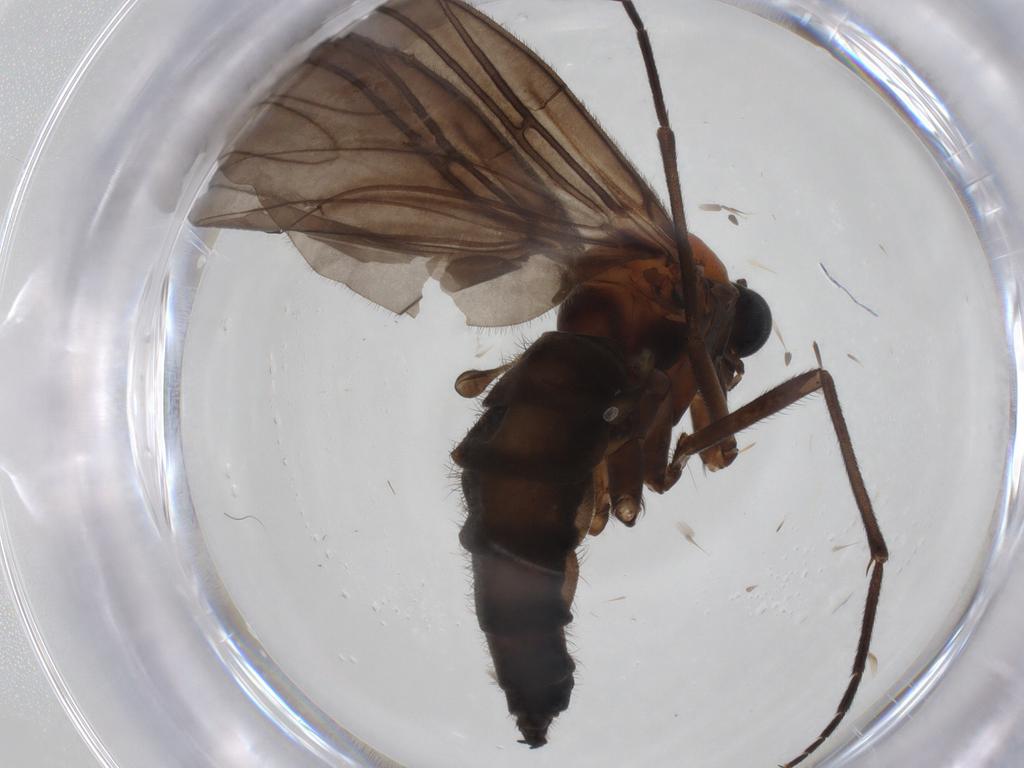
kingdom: Animalia
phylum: Arthropoda
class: Insecta
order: Diptera
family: Sciaridae
